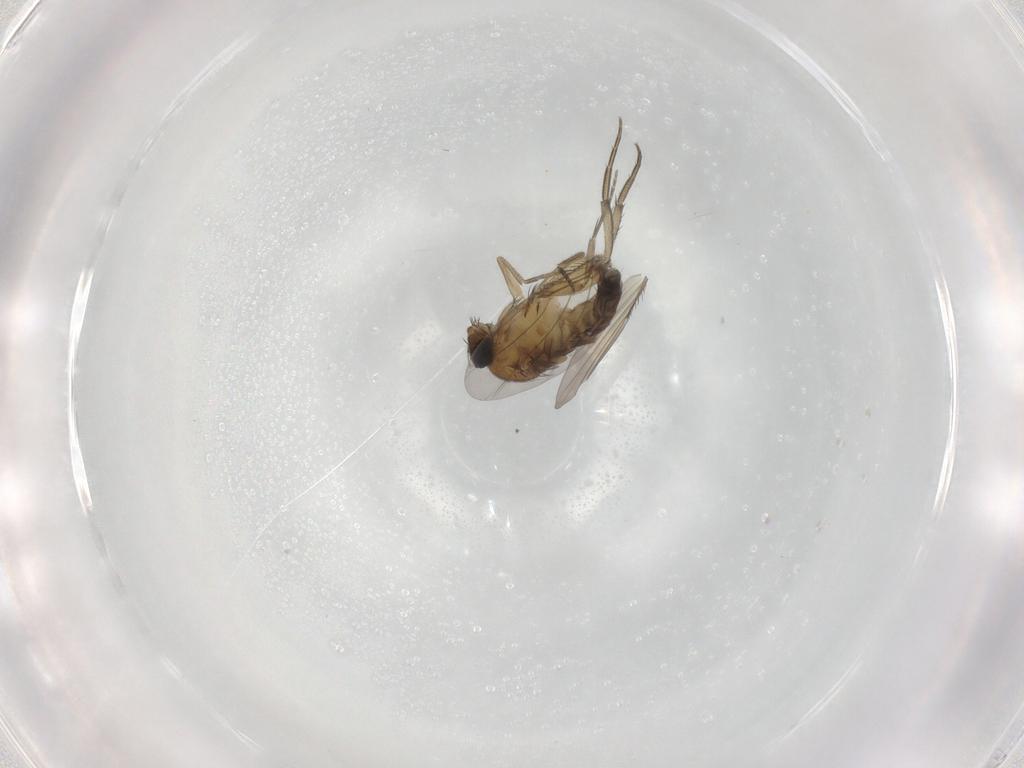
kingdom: Animalia
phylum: Arthropoda
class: Insecta
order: Diptera
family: Phoridae
